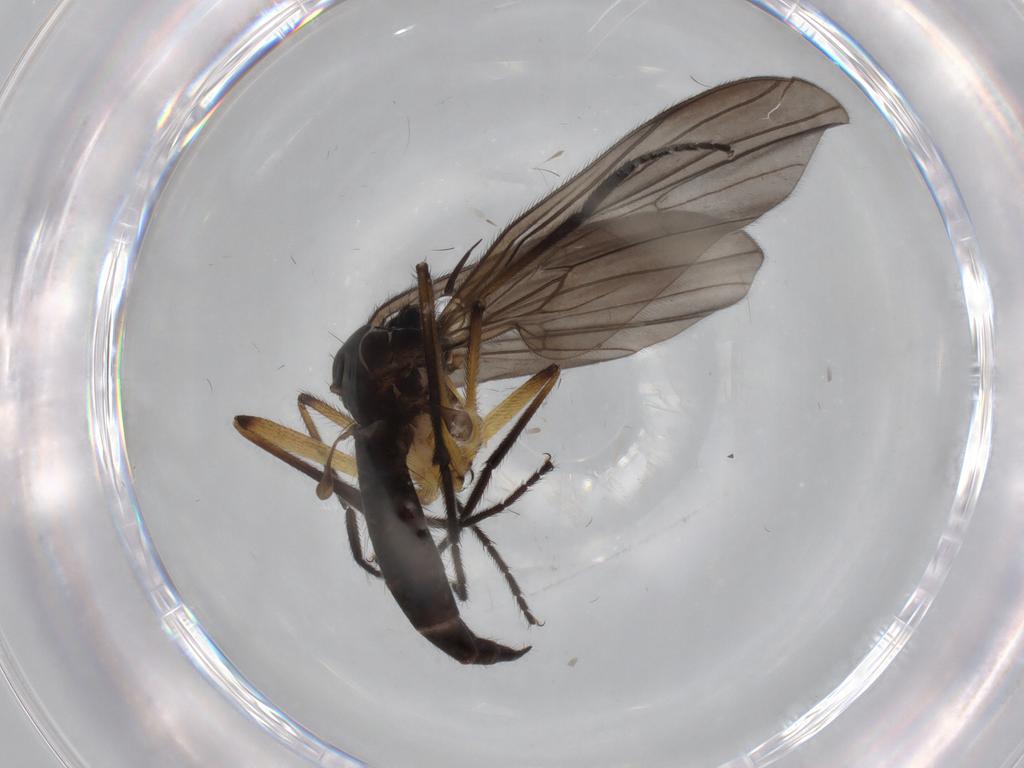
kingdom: Animalia
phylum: Arthropoda
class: Insecta
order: Diptera
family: Empididae
